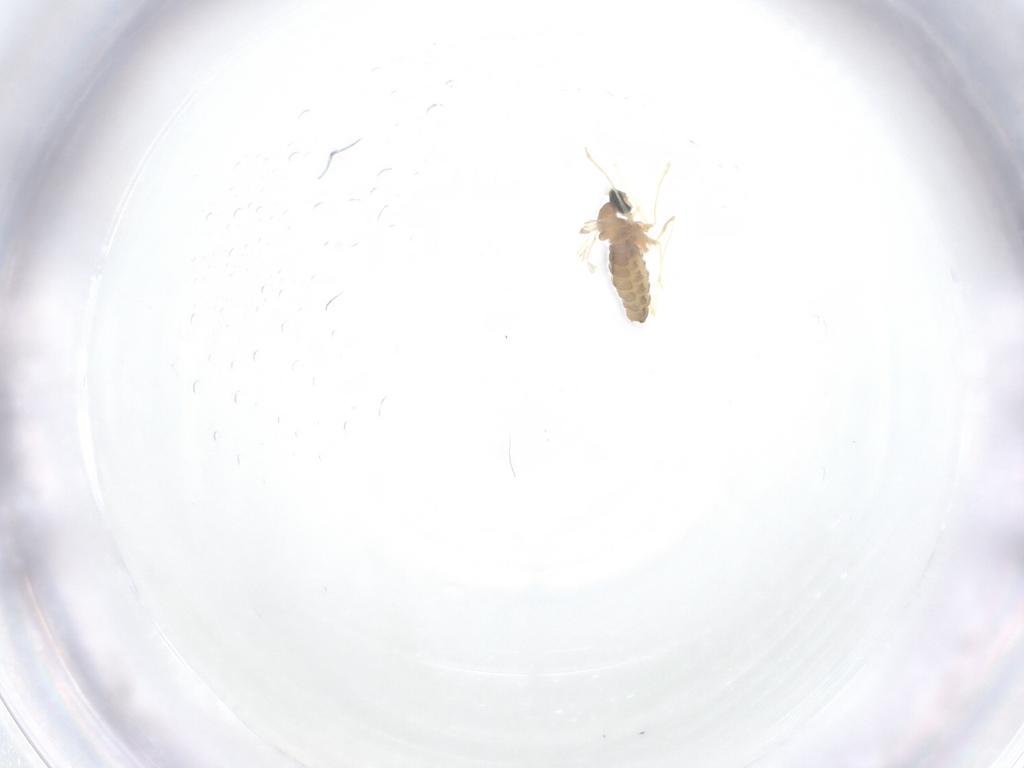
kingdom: Animalia
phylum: Arthropoda
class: Insecta
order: Diptera
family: Cecidomyiidae
